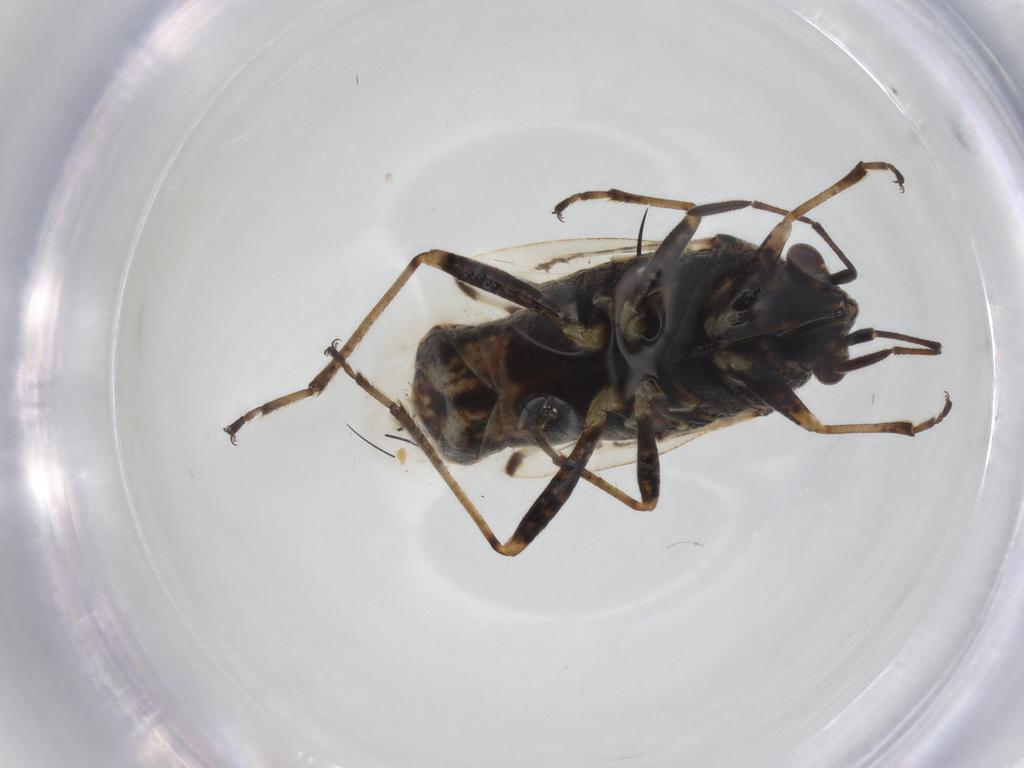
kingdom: Animalia
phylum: Arthropoda
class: Insecta
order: Hemiptera
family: Lygaeidae
